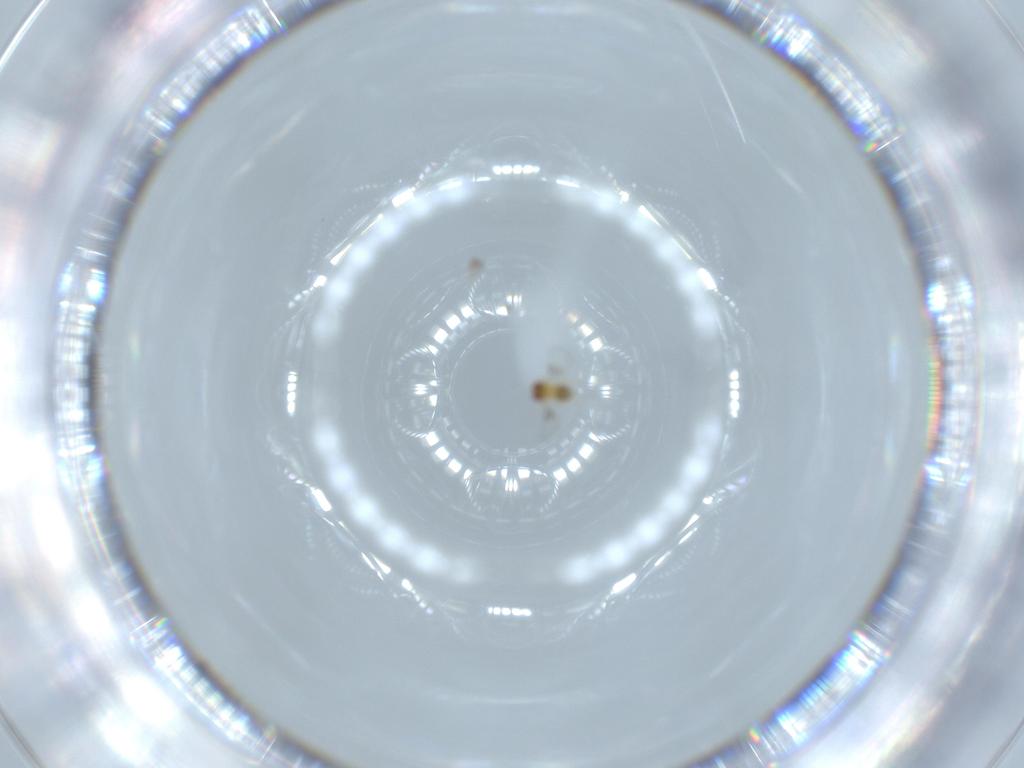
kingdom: Animalia
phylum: Arthropoda
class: Insecta
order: Hymenoptera
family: Trichogrammatidae
